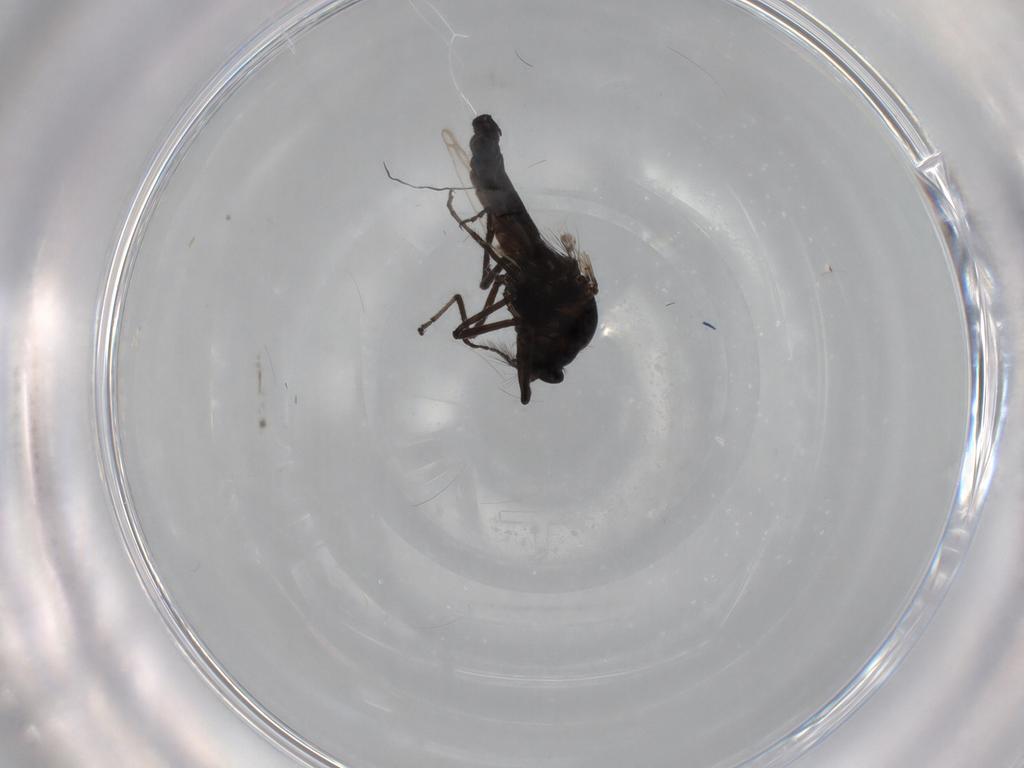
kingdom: Animalia
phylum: Arthropoda
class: Insecta
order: Diptera
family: Ceratopogonidae
